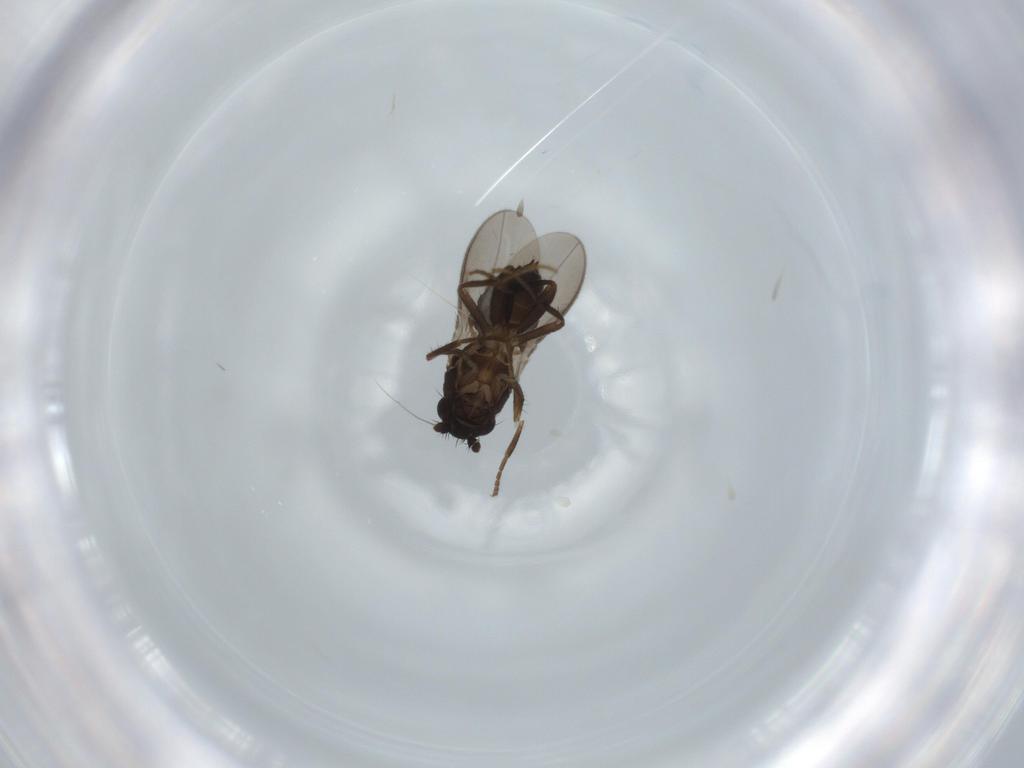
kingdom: Animalia
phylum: Arthropoda
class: Insecta
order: Diptera
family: Sphaeroceridae
